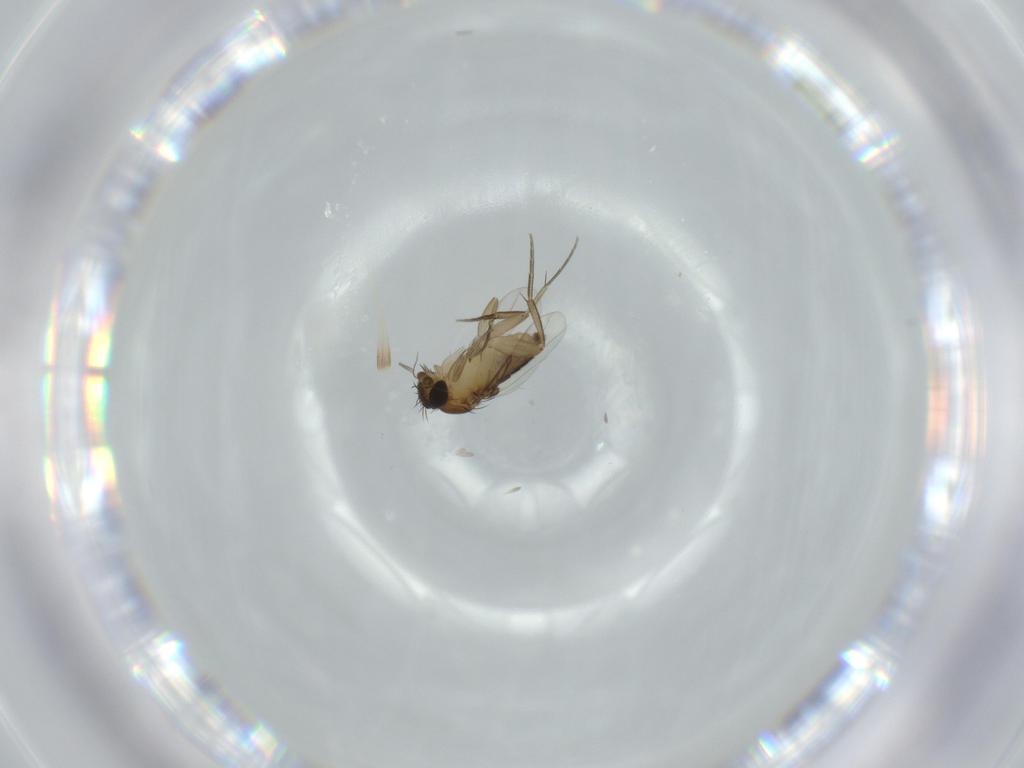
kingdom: Animalia
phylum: Arthropoda
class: Insecta
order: Diptera
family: Phoridae
